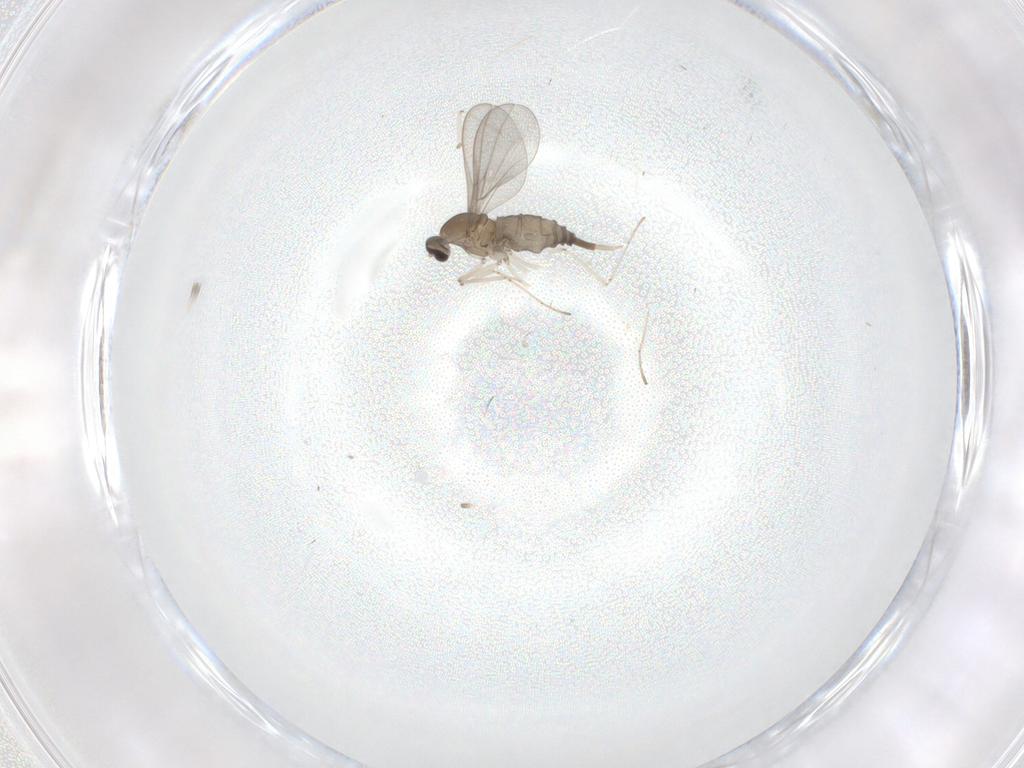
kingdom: Animalia
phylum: Arthropoda
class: Insecta
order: Diptera
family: Cecidomyiidae
